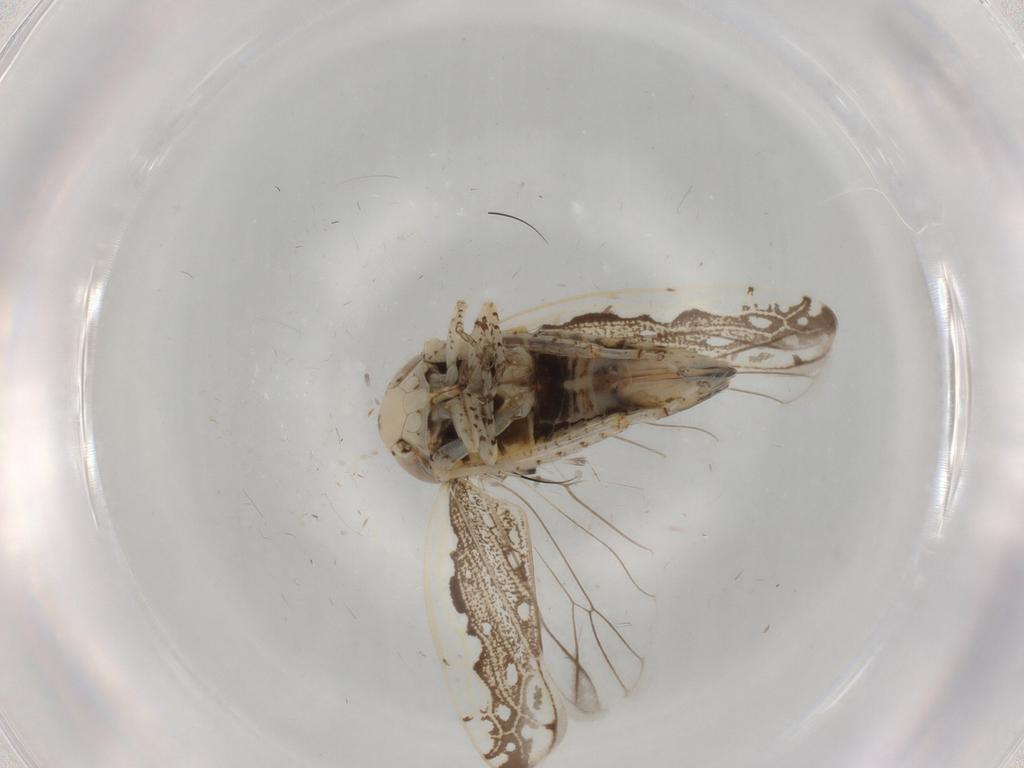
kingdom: Animalia
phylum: Arthropoda
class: Insecta
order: Hemiptera
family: Cicadellidae
